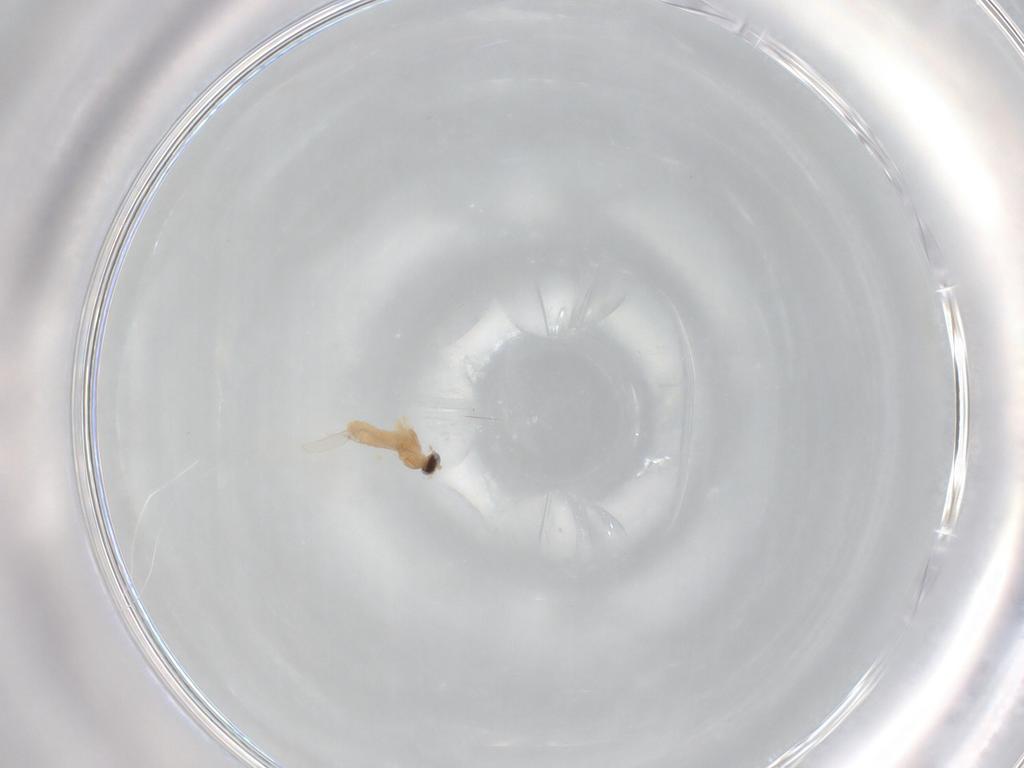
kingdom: Animalia
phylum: Arthropoda
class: Insecta
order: Diptera
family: Cecidomyiidae
